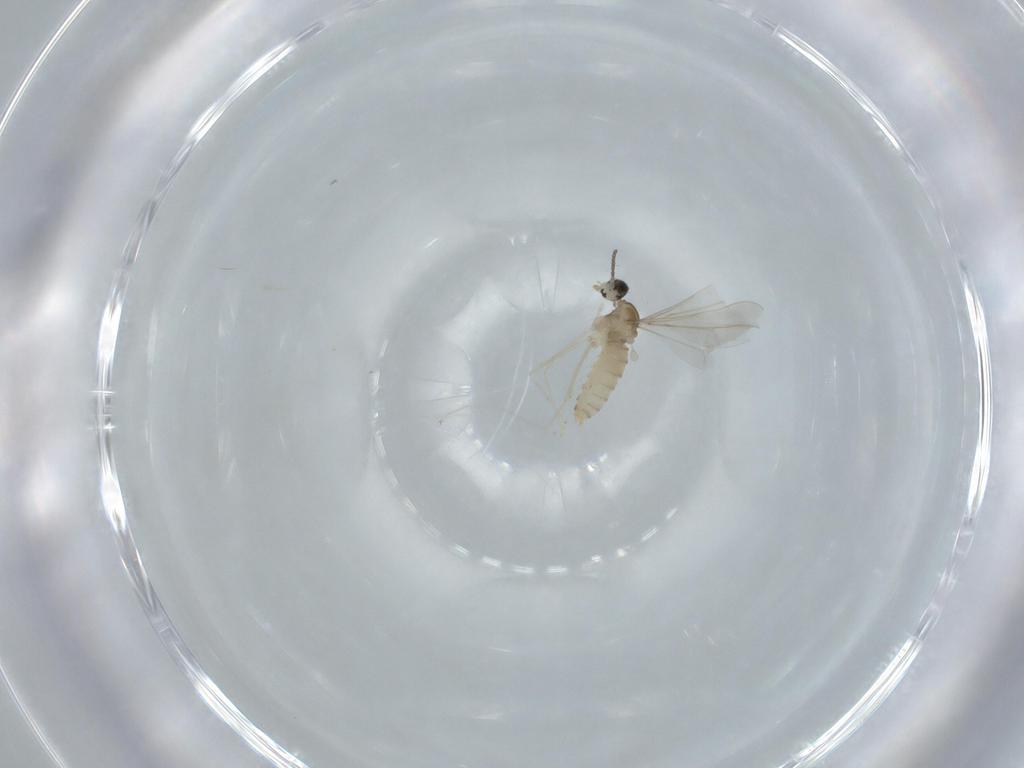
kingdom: Animalia
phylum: Arthropoda
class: Insecta
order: Diptera
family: Cecidomyiidae
